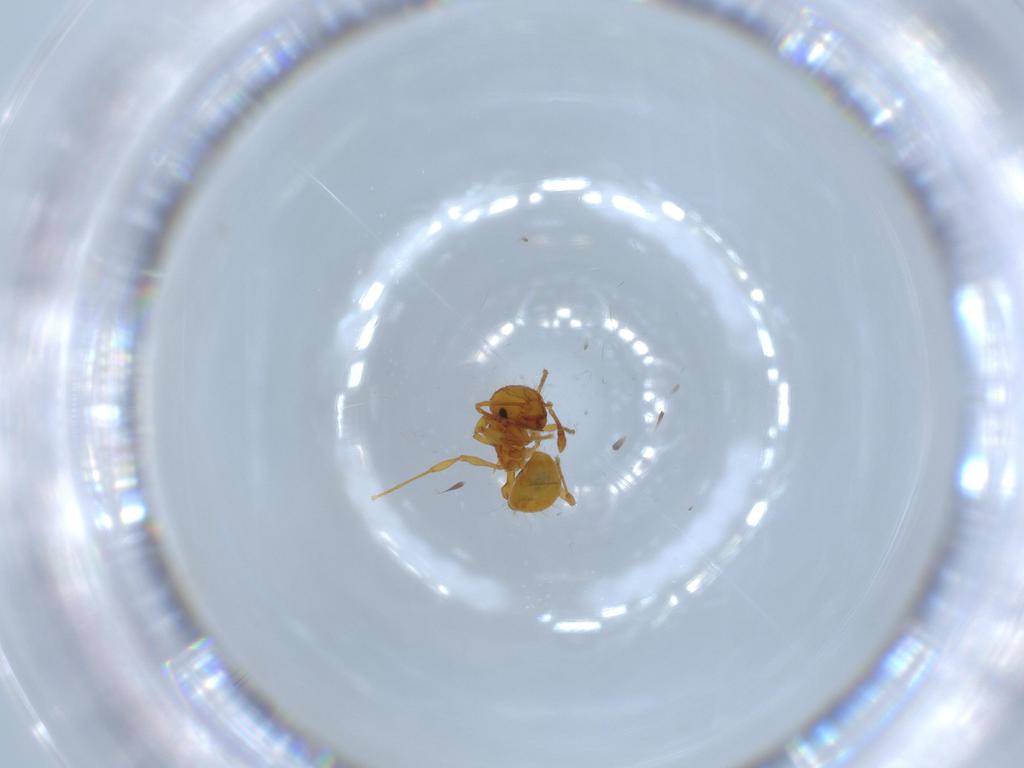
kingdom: Animalia
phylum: Arthropoda
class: Insecta
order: Hymenoptera
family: Formicidae
